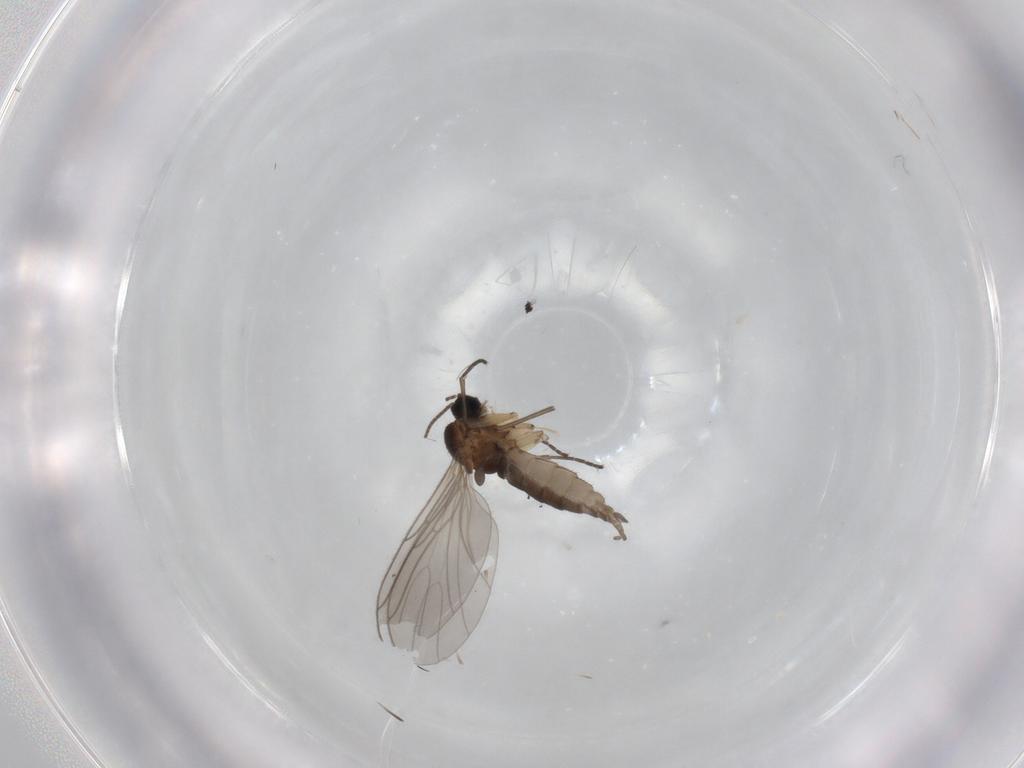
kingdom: Animalia
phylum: Arthropoda
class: Insecta
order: Diptera
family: Sciaridae
